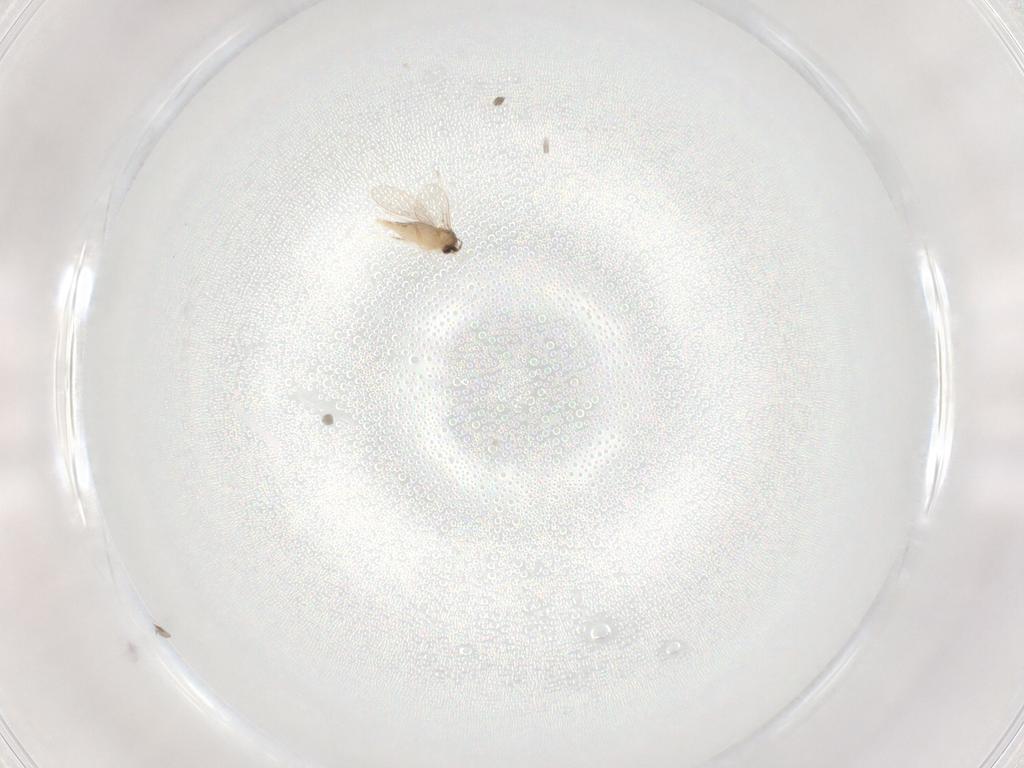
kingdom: Animalia
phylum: Arthropoda
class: Insecta
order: Diptera
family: Cecidomyiidae
